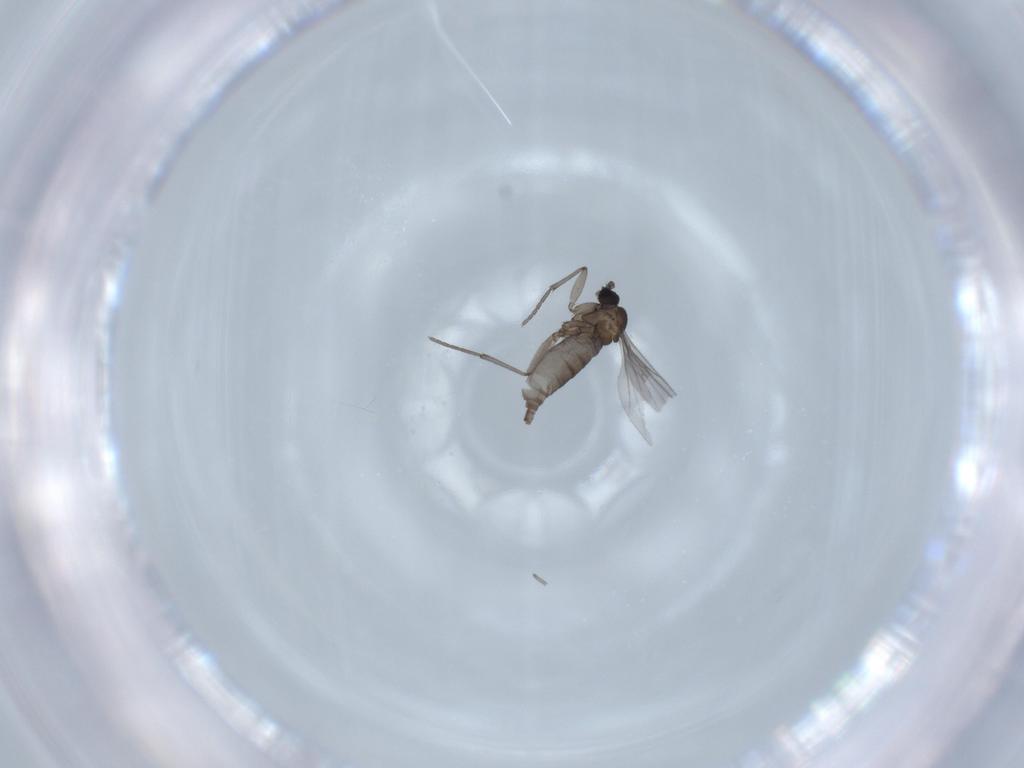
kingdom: Animalia
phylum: Arthropoda
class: Insecta
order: Diptera
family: Sciaridae
